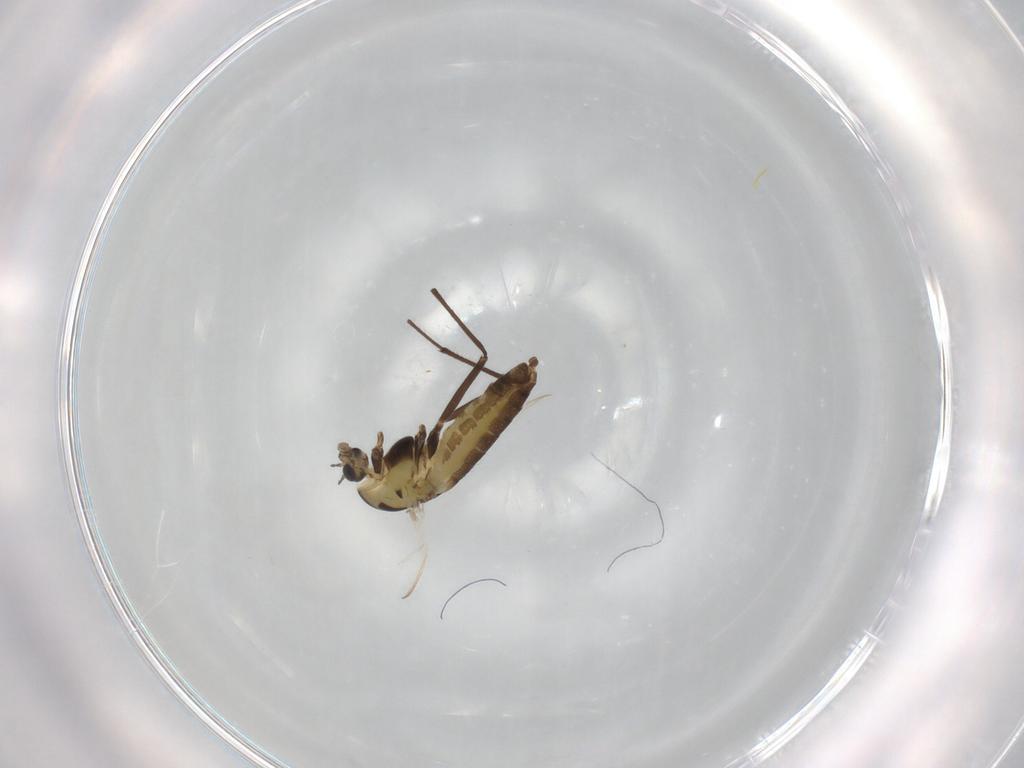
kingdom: Animalia
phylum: Arthropoda
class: Insecta
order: Diptera
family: Chironomidae
